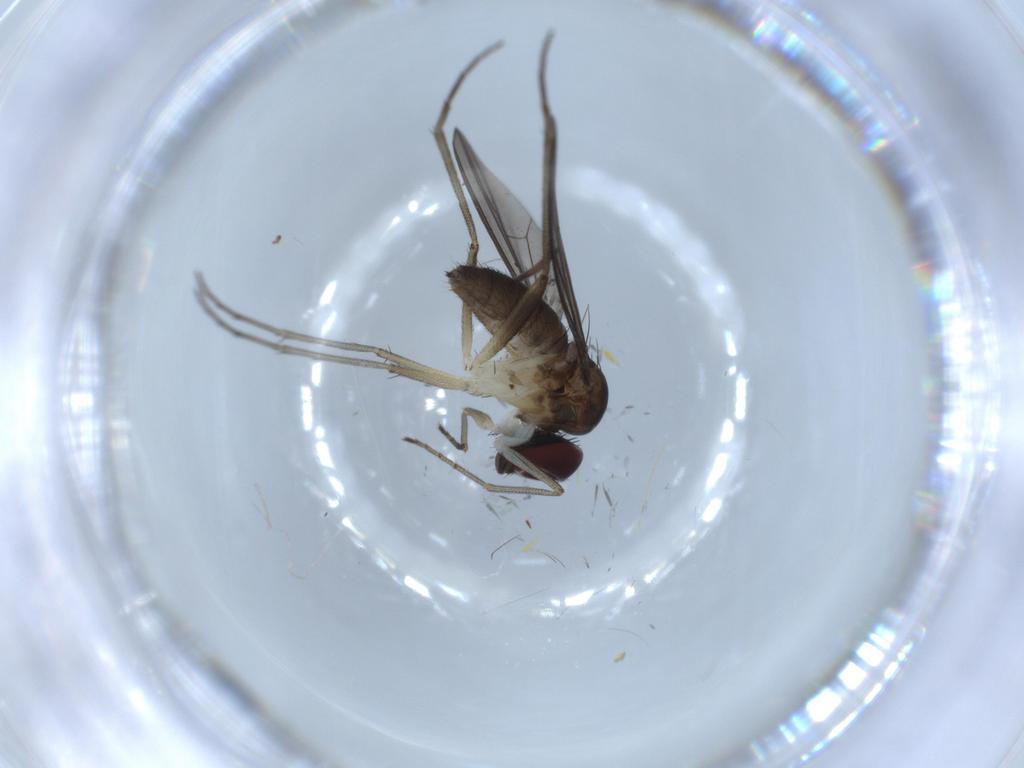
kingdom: Animalia
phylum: Arthropoda
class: Insecta
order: Diptera
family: Dolichopodidae
